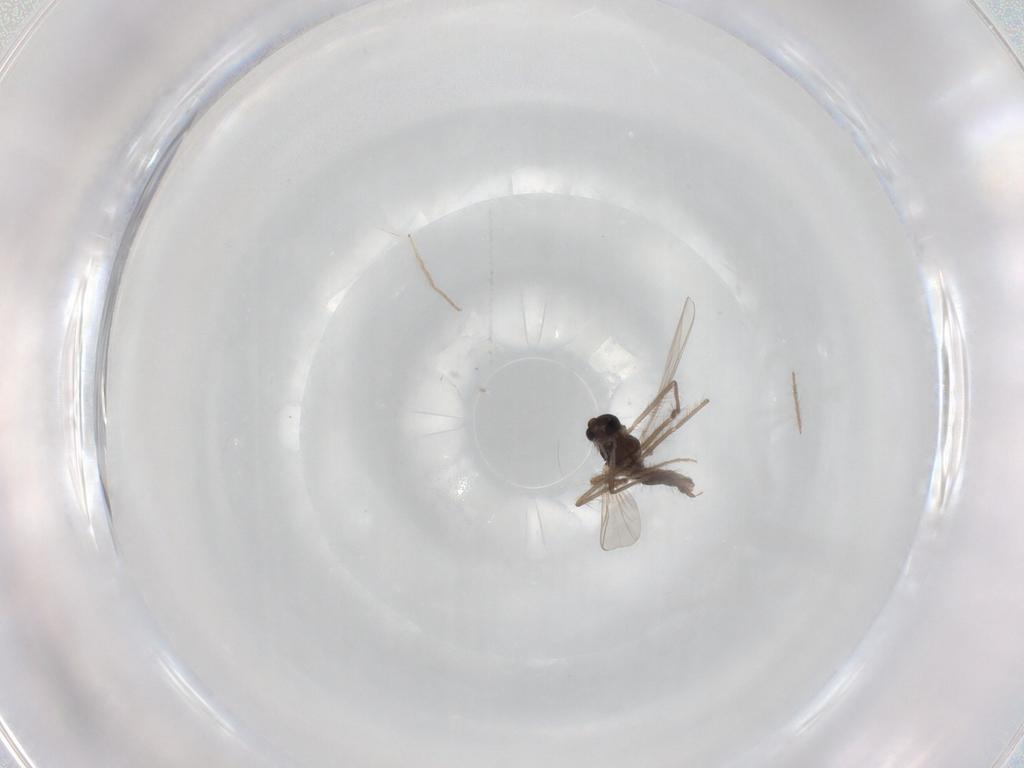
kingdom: Animalia
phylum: Arthropoda
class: Insecta
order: Diptera
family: Chironomidae
